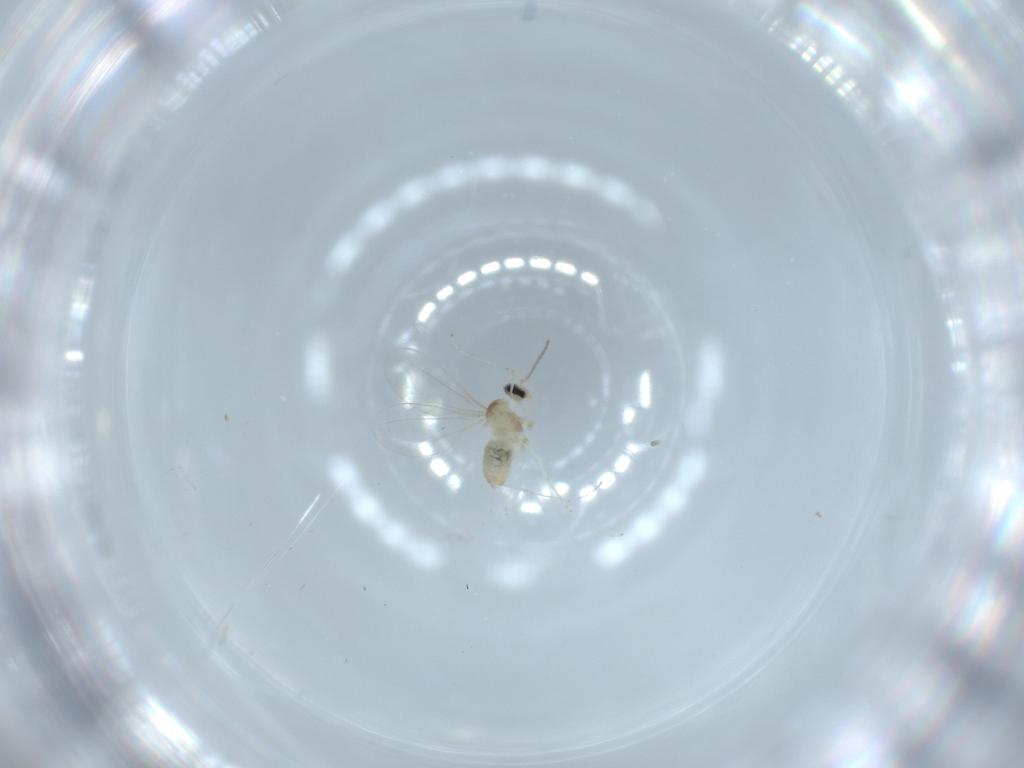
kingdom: Animalia
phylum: Arthropoda
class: Insecta
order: Diptera
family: Cecidomyiidae
